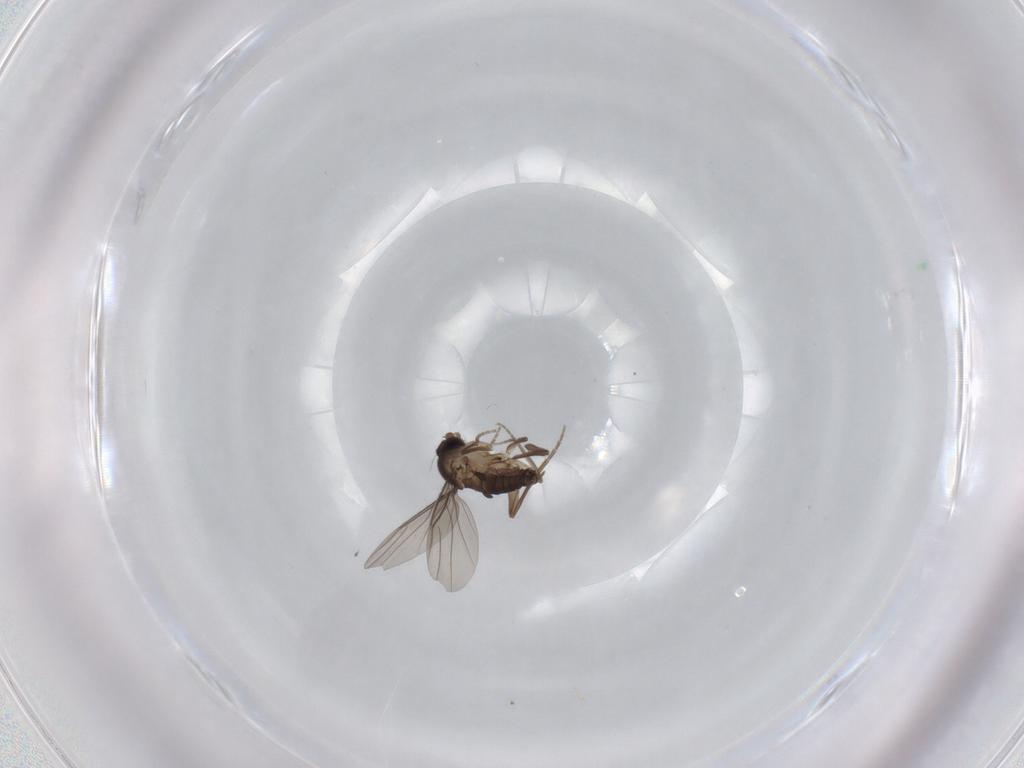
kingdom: Animalia
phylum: Arthropoda
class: Insecta
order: Diptera
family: Phoridae
